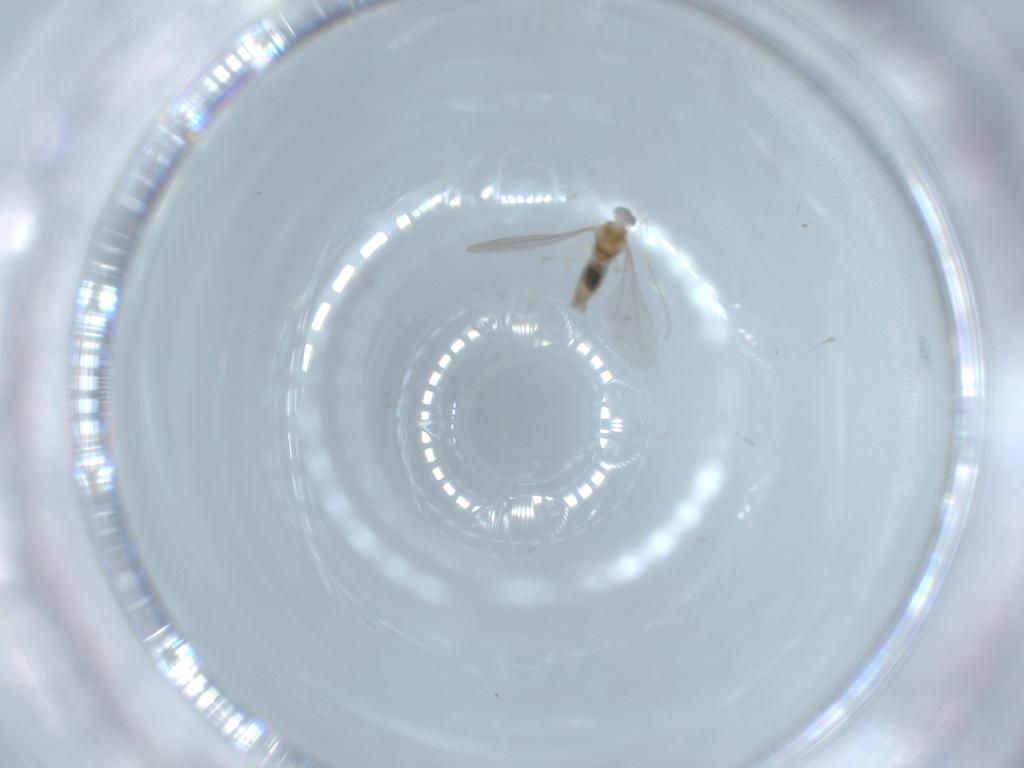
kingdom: Animalia
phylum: Arthropoda
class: Insecta
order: Diptera
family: Cecidomyiidae
